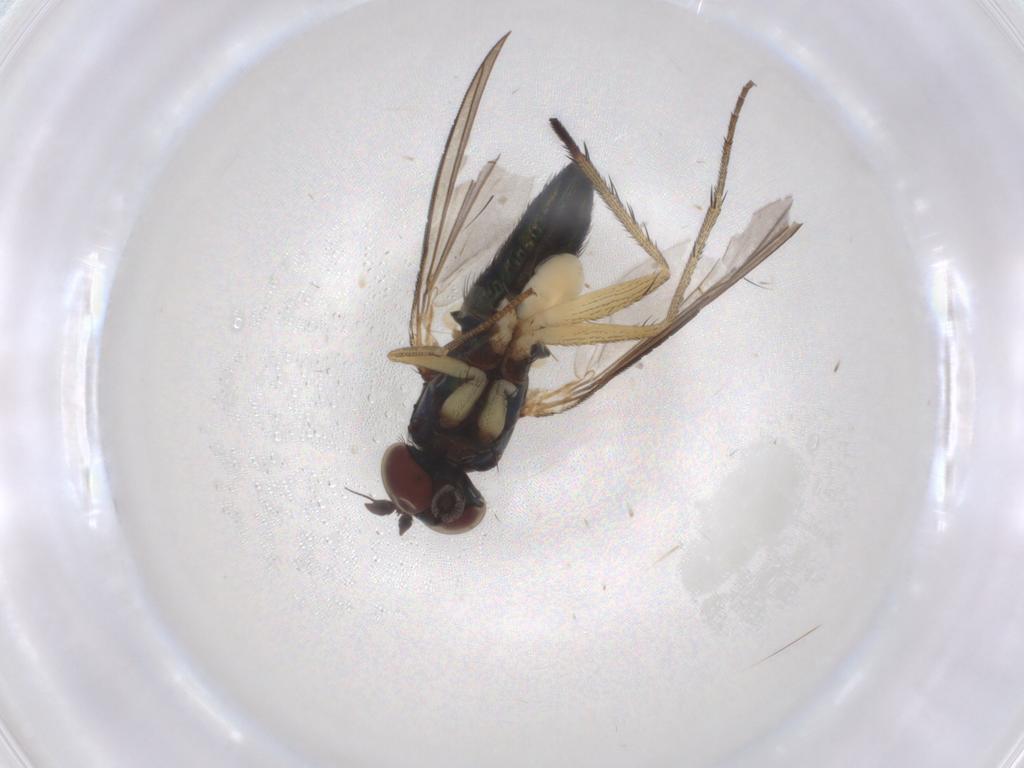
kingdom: Animalia
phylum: Arthropoda
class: Insecta
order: Diptera
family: Dolichopodidae
